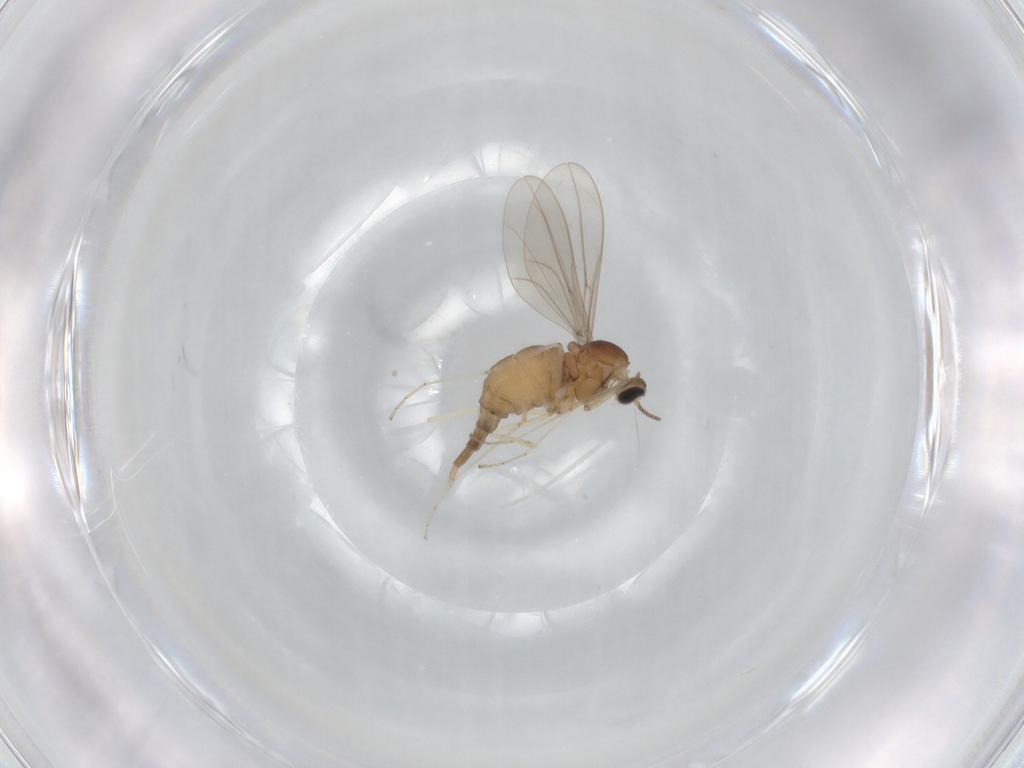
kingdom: Animalia
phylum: Arthropoda
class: Insecta
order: Diptera
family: Cecidomyiidae
